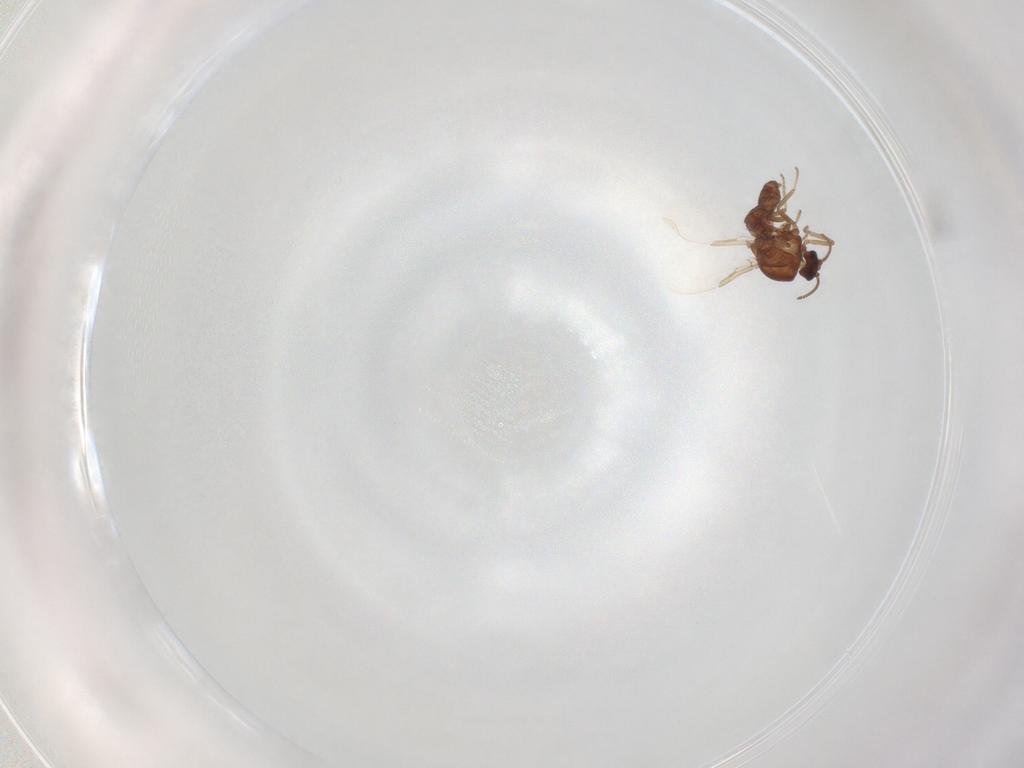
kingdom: Animalia
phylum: Arthropoda
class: Insecta
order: Diptera
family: Ceratopogonidae
